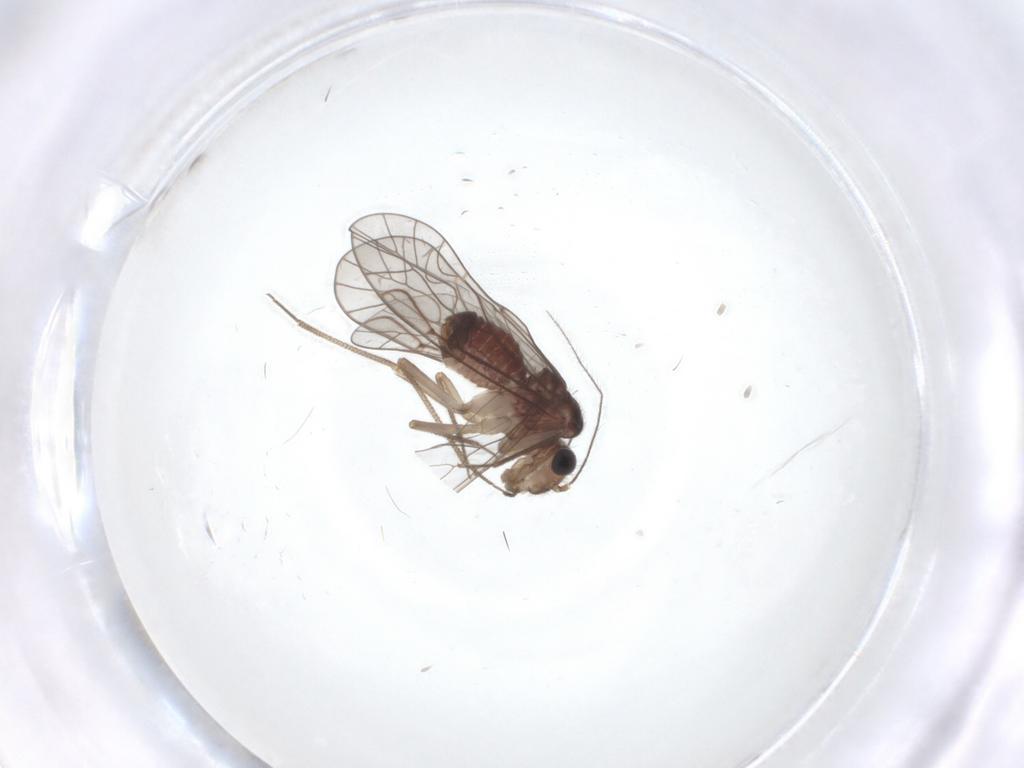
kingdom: Animalia
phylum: Arthropoda
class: Insecta
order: Psocodea
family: Lachesillidae
